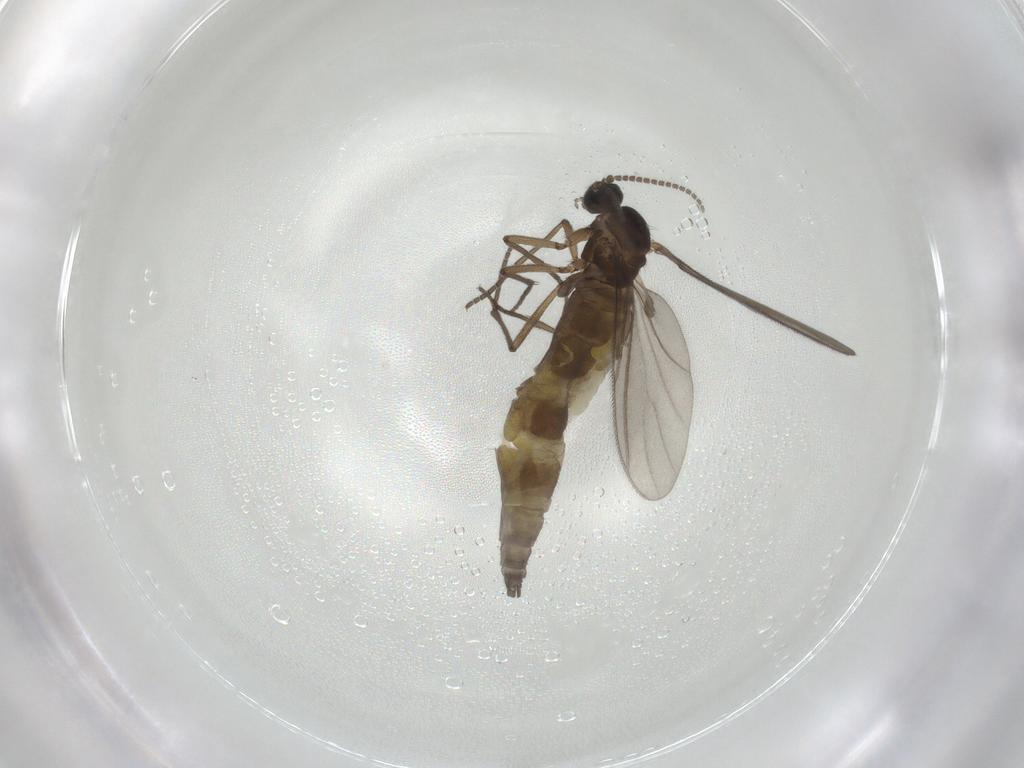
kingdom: Animalia
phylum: Arthropoda
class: Insecta
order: Diptera
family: Sciaridae
